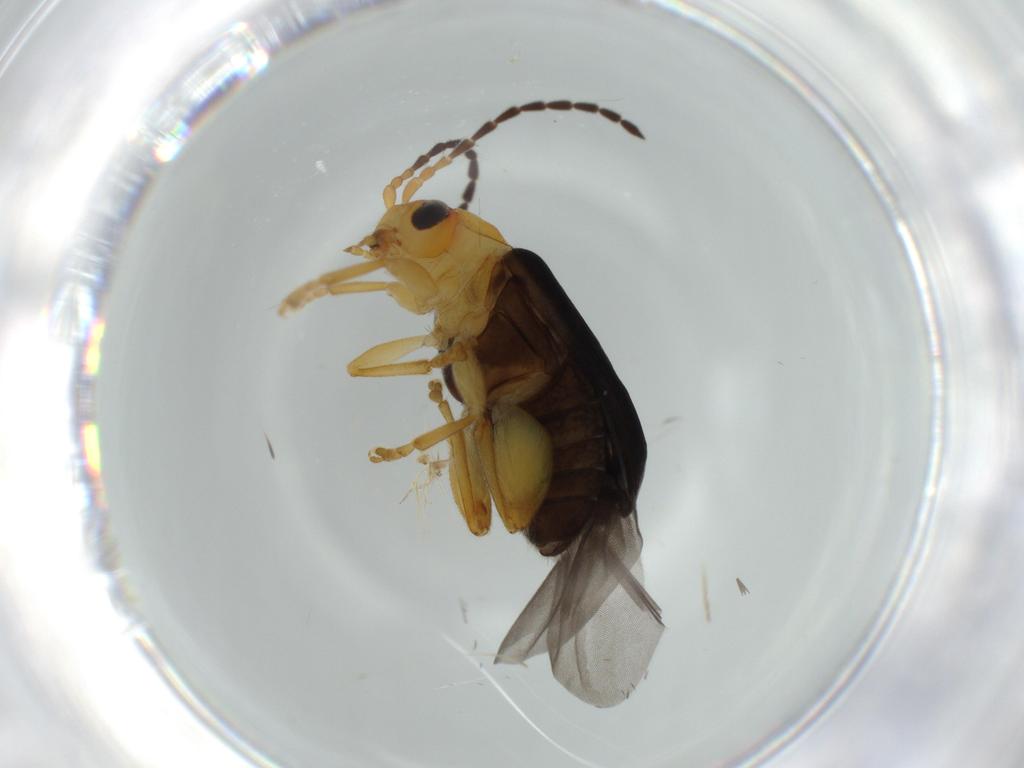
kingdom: Animalia
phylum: Arthropoda
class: Insecta
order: Coleoptera
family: Chrysomelidae
